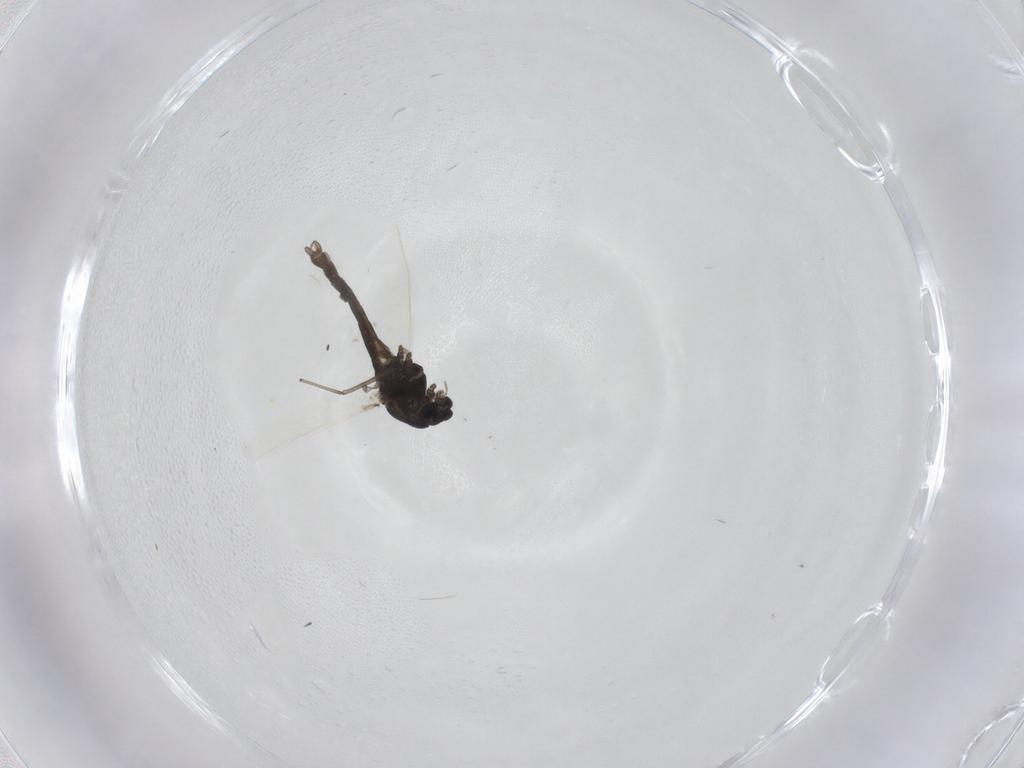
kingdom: Animalia
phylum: Arthropoda
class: Insecta
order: Diptera
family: Chironomidae
